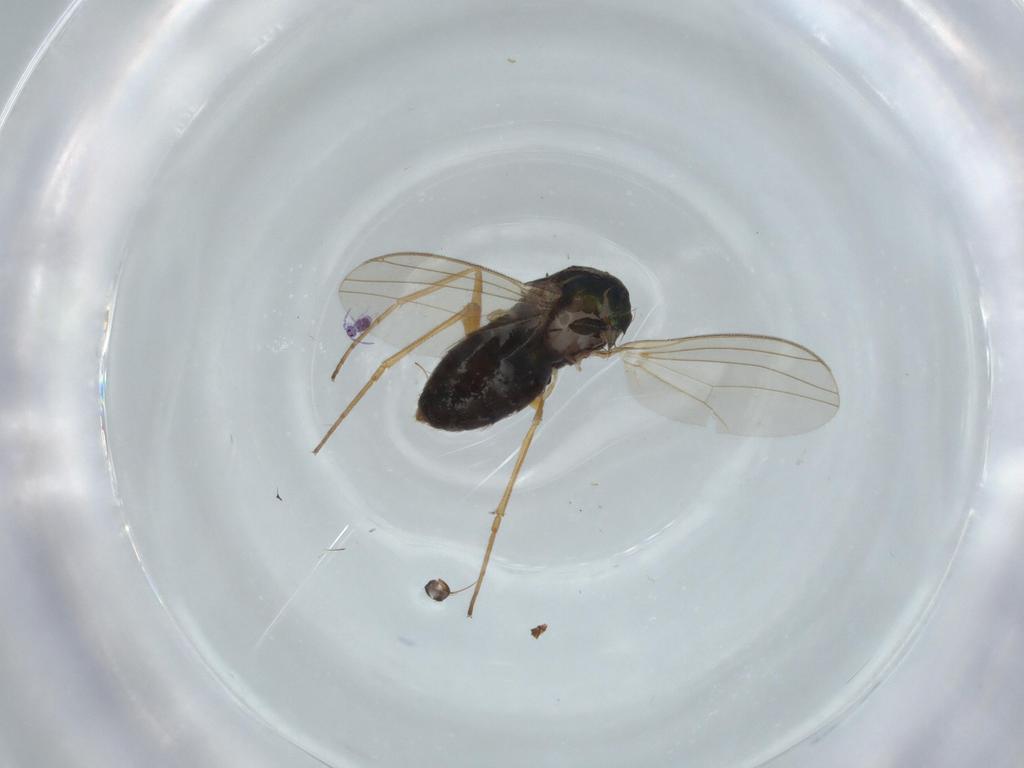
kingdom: Animalia
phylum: Arthropoda
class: Insecta
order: Diptera
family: Dolichopodidae
